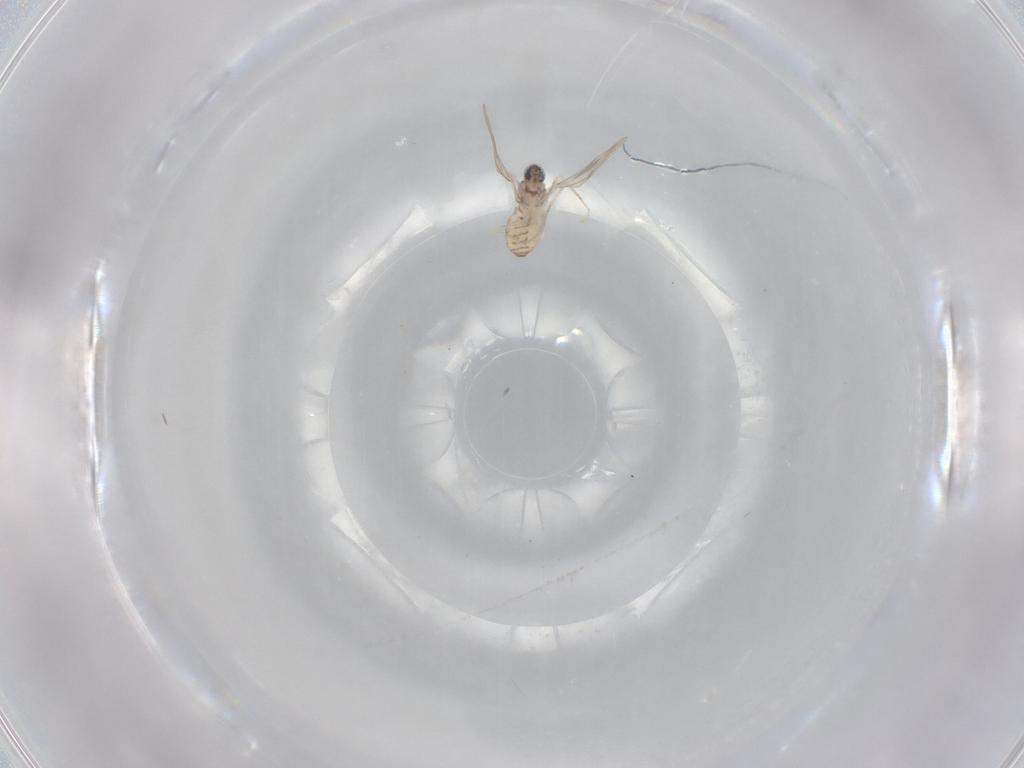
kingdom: Animalia
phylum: Arthropoda
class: Insecta
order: Diptera
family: Cecidomyiidae
